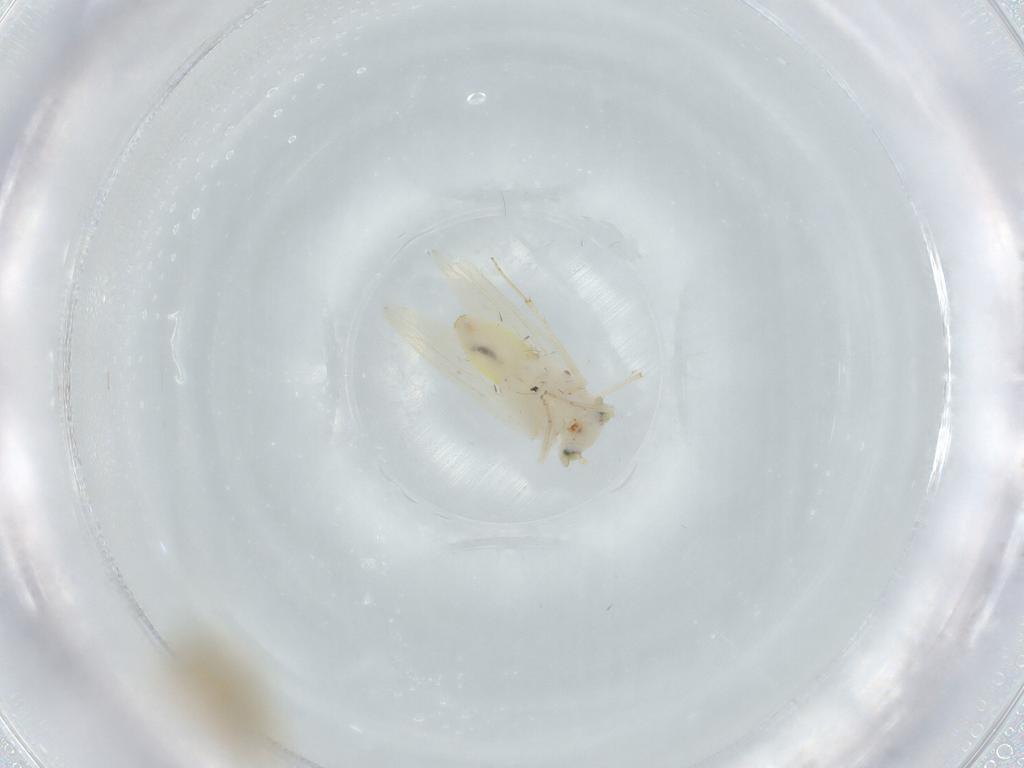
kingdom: Animalia
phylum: Arthropoda
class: Insecta
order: Psocodea
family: Lepidopsocidae
